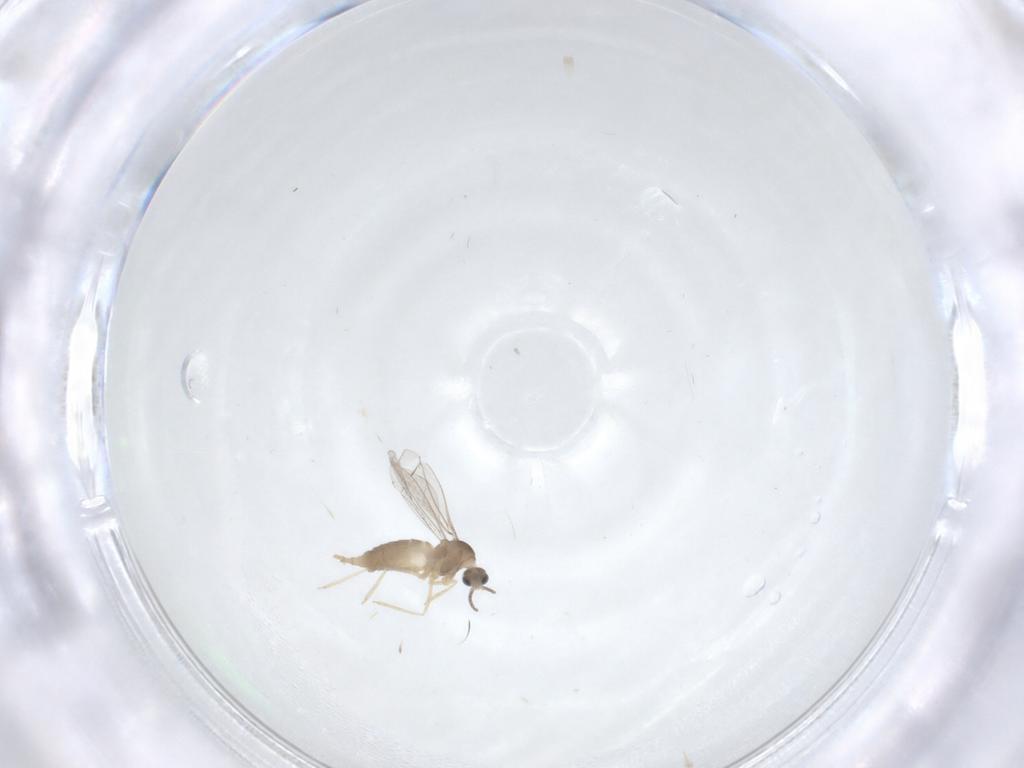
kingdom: Animalia
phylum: Arthropoda
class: Insecta
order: Diptera
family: Cecidomyiidae
